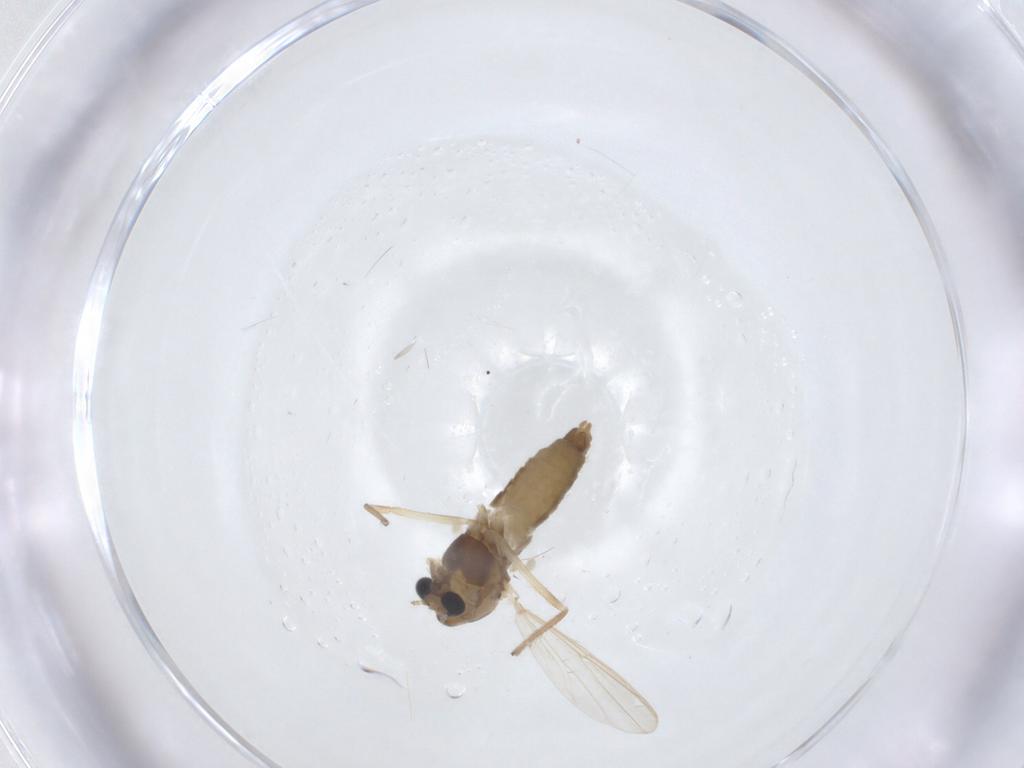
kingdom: Animalia
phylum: Arthropoda
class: Insecta
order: Diptera
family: Chironomidae
